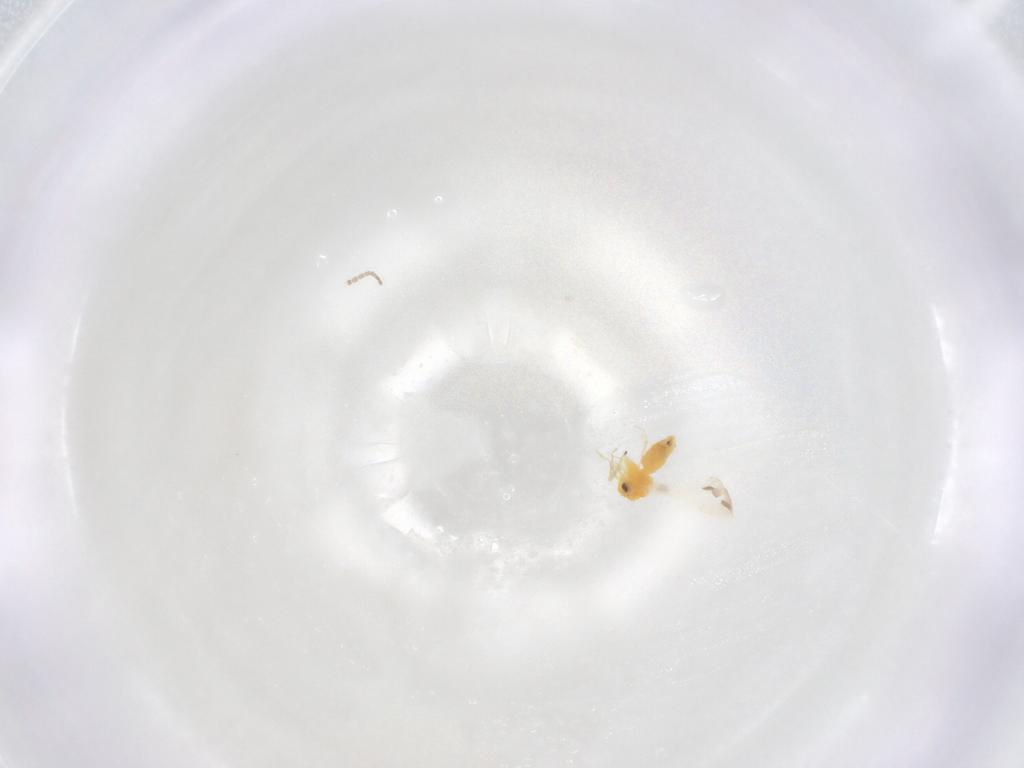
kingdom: Animalia
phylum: Arthropoda
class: Insecta
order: Hemiptera
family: Aleyrodidae
